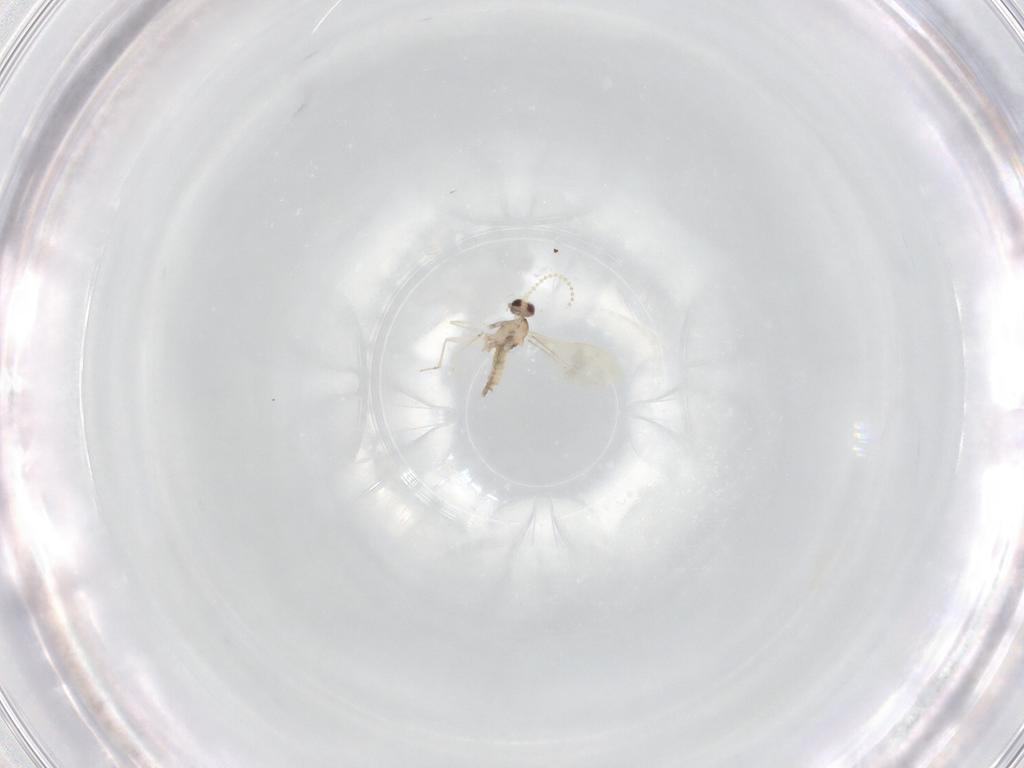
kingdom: Animalia
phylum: Arthropoda
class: Insecta
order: Diptera
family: Cecidomyiidae
